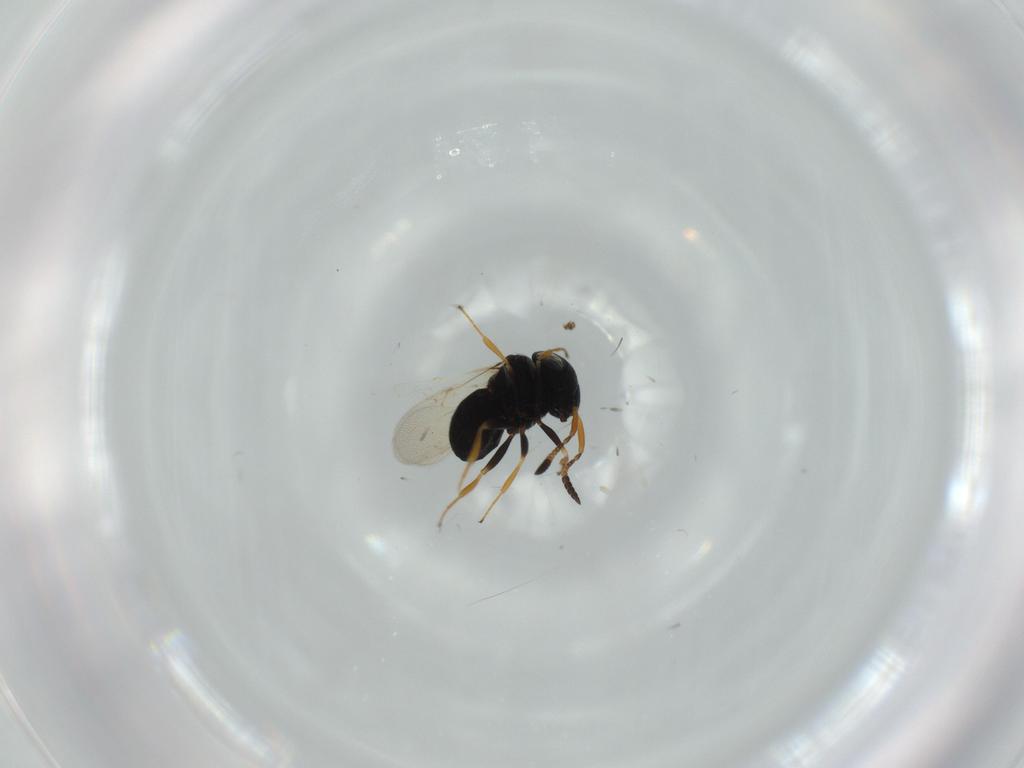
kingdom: Animalia
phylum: Arthropoda
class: Insecta
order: Hymenoptera
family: Scelionidae
